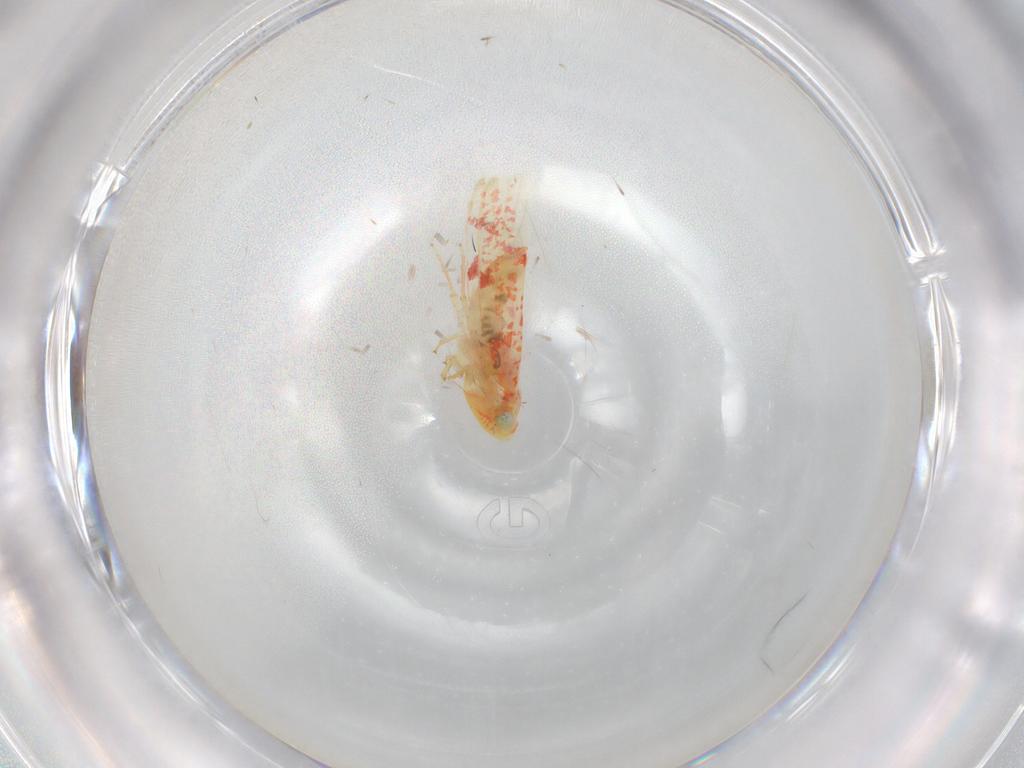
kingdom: Animalia
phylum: Arthropoda
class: Insecta
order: Hemiptera
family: Cicadellidae
